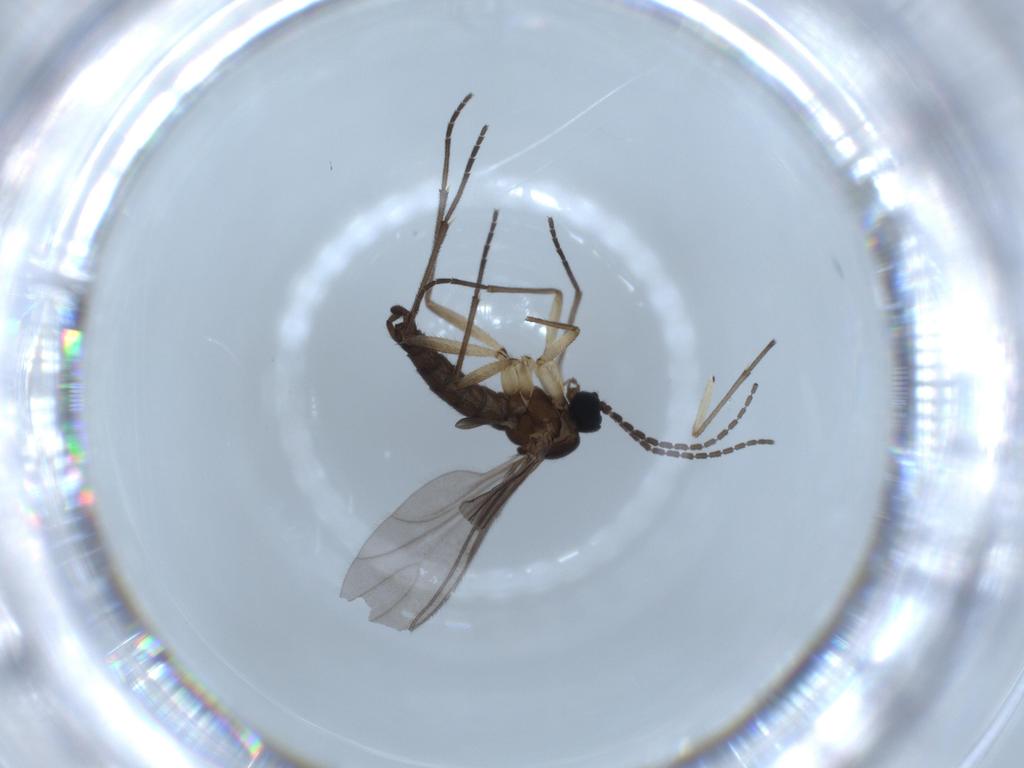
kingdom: Animalia
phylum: Arthropoda
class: Insecta
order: Diptera
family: Sciaridae
